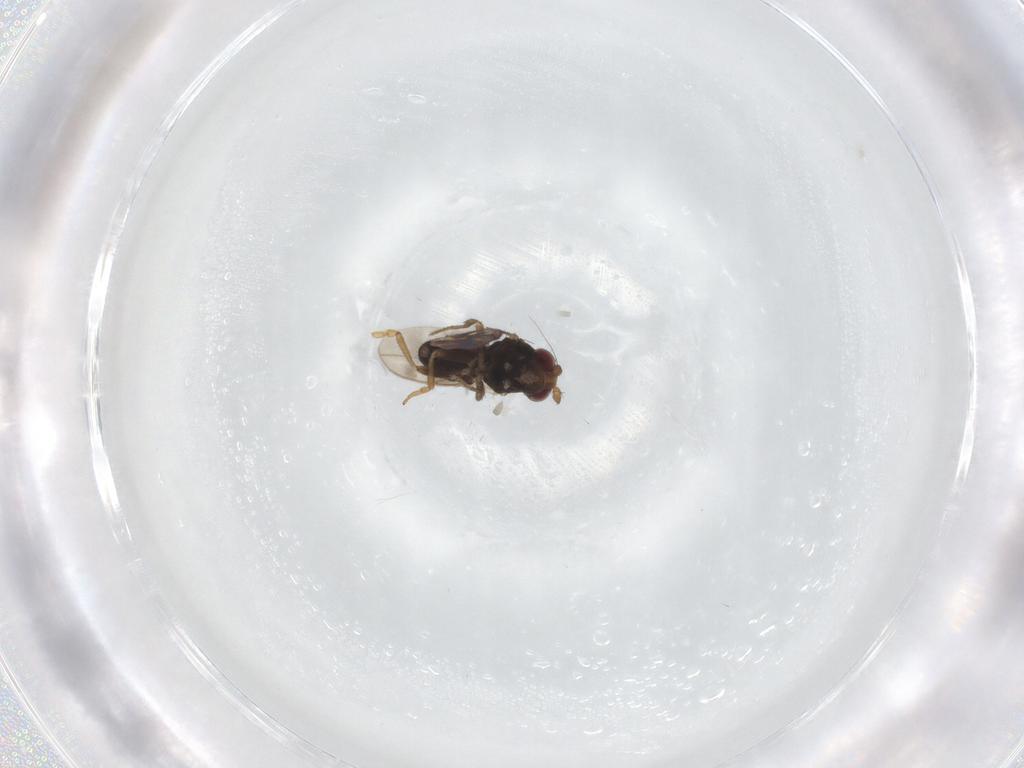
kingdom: Animalia
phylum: Arthropoda
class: Insecta
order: Diptera
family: Sphaeroceridae
